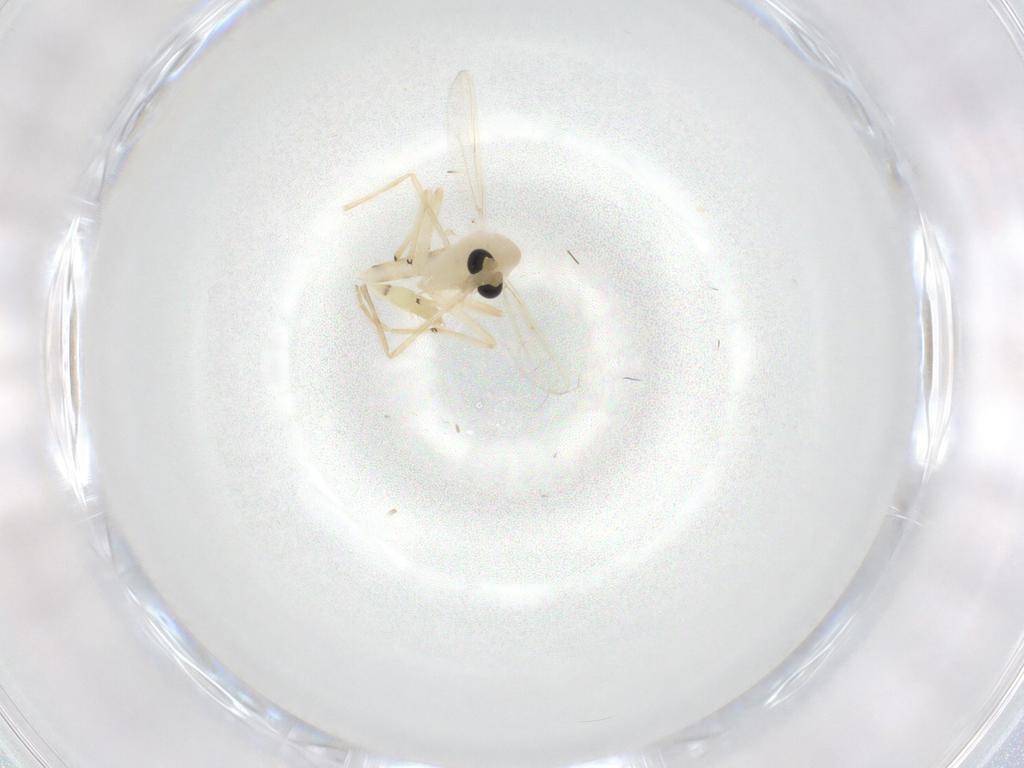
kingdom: Animalia
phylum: Arthropoda
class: Insecta
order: Diptera
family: Chironomidae
